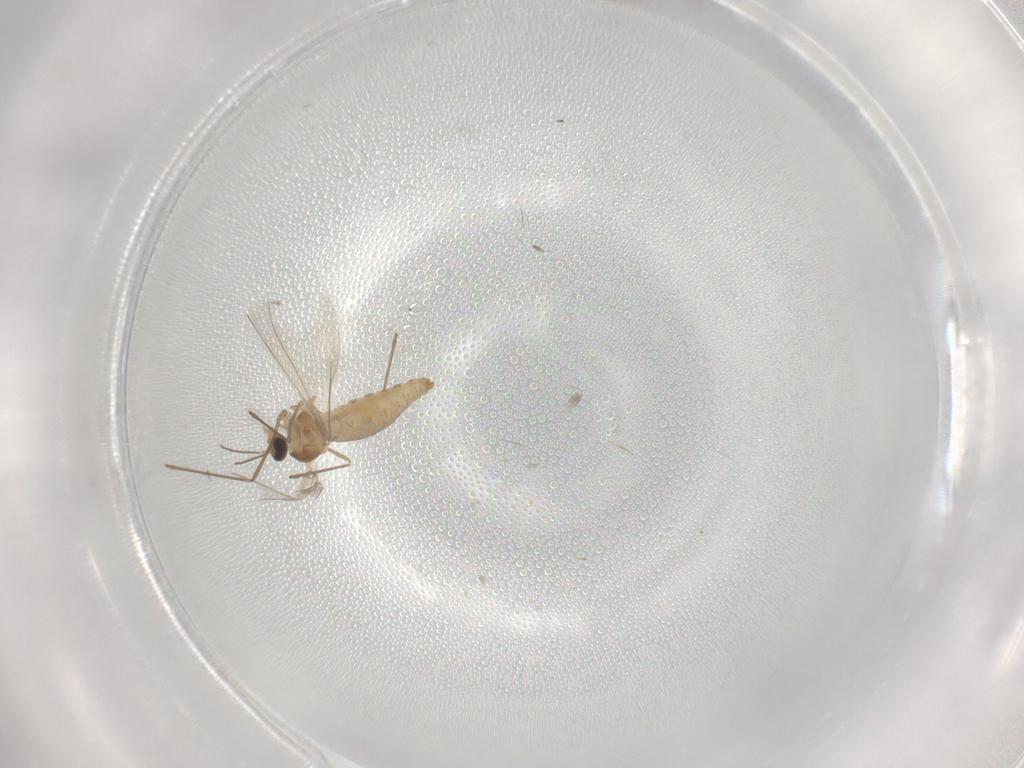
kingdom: Animalia
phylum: Arthropoda
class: Insecta
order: Diptera
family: Cecidomyiidae
